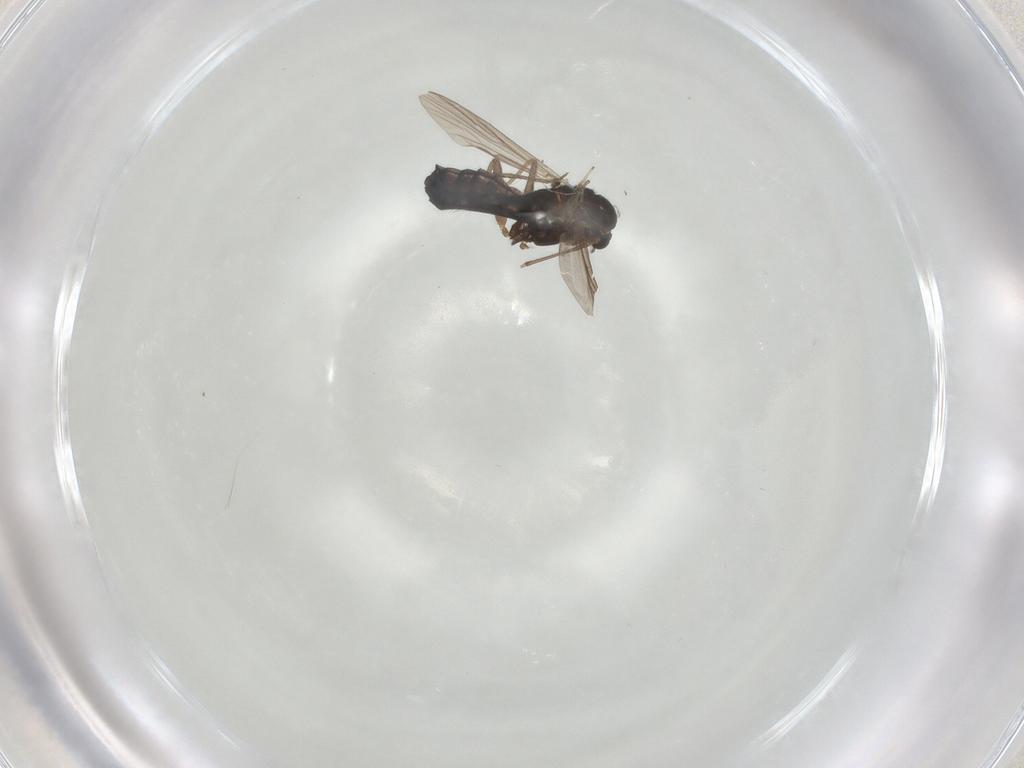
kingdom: Animalia
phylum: Arthropoda
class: Insecta
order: Diptera
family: Chironomidae
